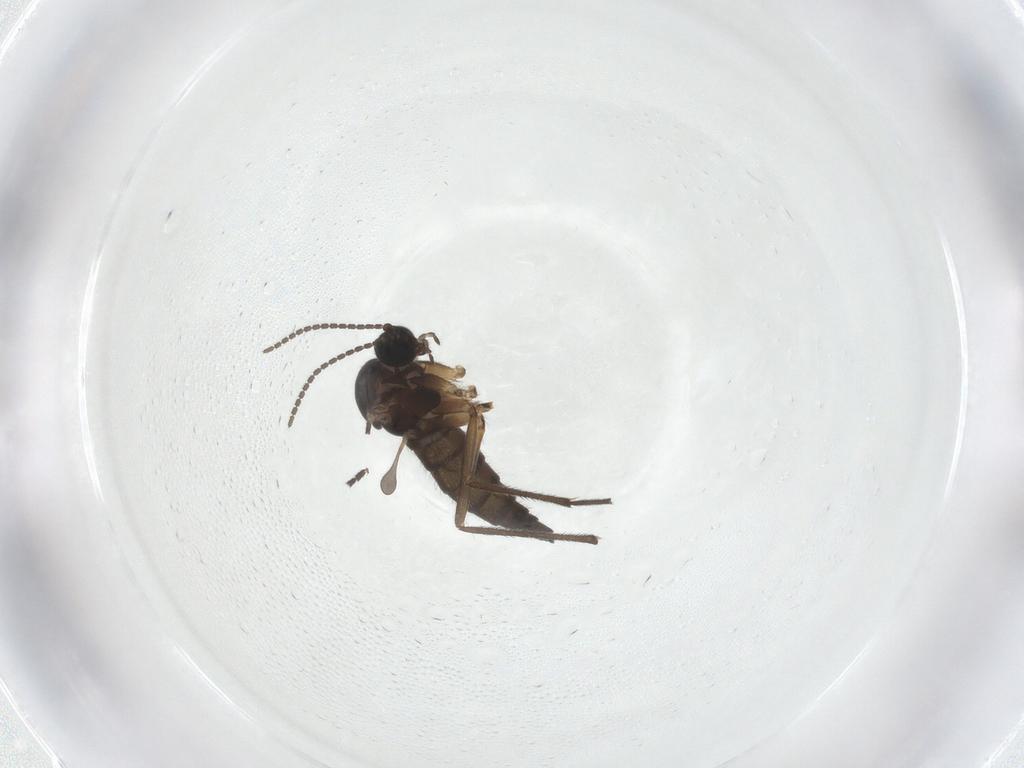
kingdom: Animalia
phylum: Arthropoda
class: Insecta
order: Diptera
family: Sciaridae
